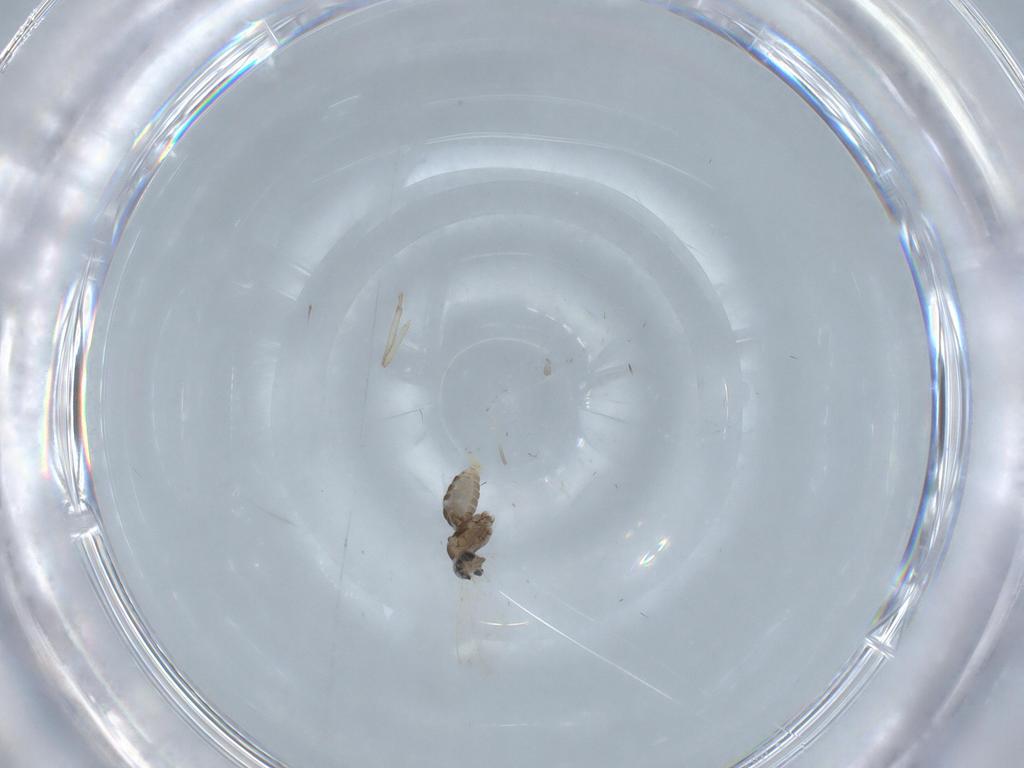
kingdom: Animalia
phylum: Arthropoda
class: Insecta
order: Diptera
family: Cecidomyiidae
